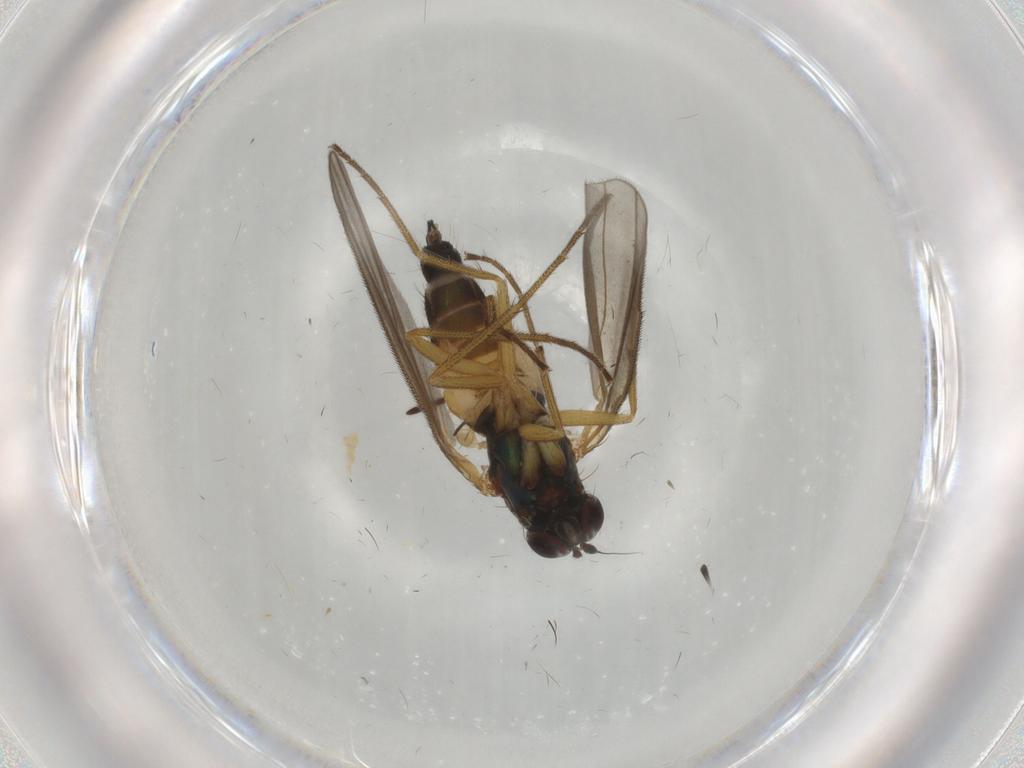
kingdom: Animalia
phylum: Arthropoda
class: Insecta
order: Diptera
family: Dolichopodidae
